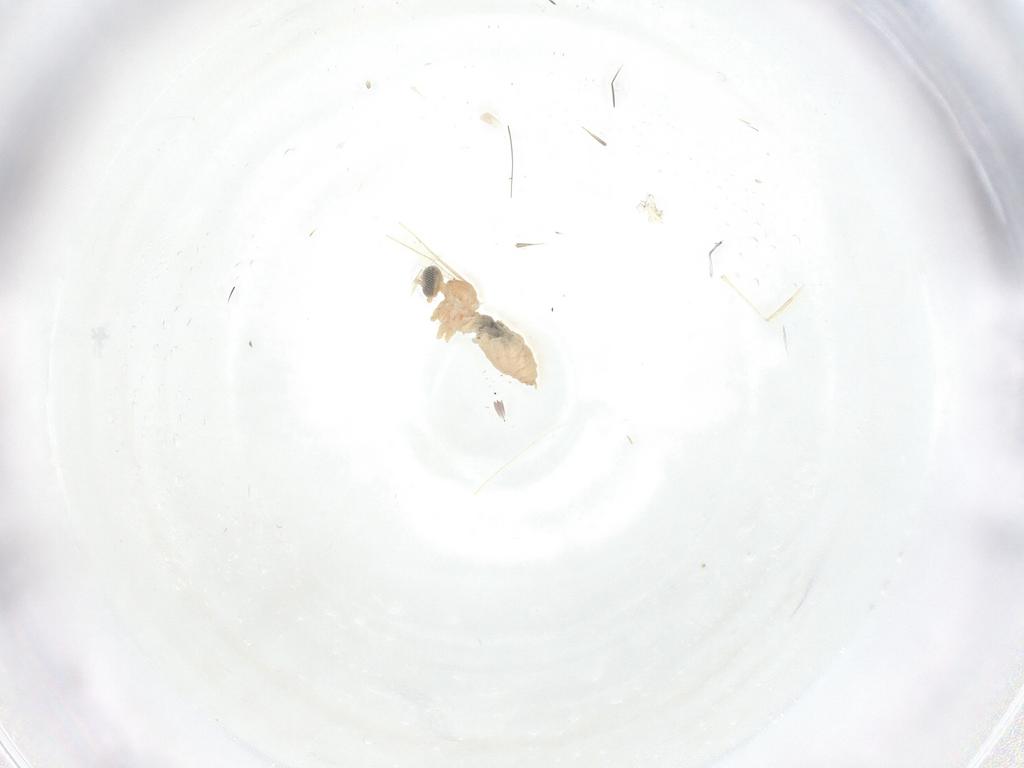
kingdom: Animalia
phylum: Arthropoda
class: Insecta
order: Diptera
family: Cecidomyiidae
